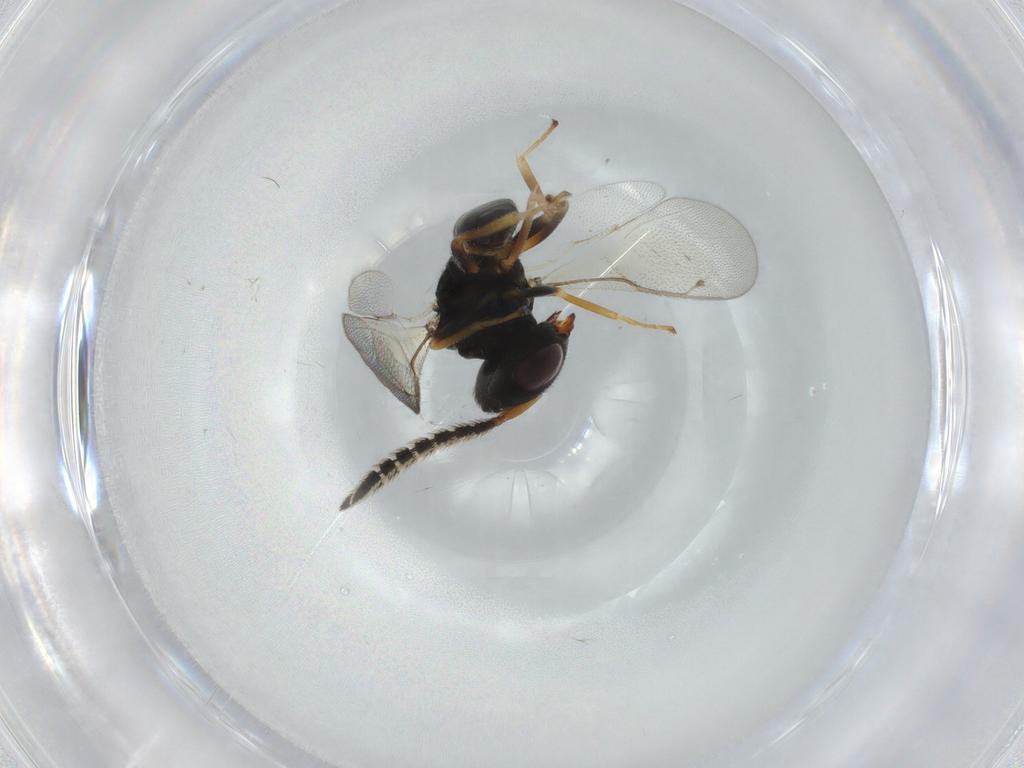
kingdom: Animalia
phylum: Arthropoda
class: Insecta
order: Hymenoptera
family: Pteromalidae
